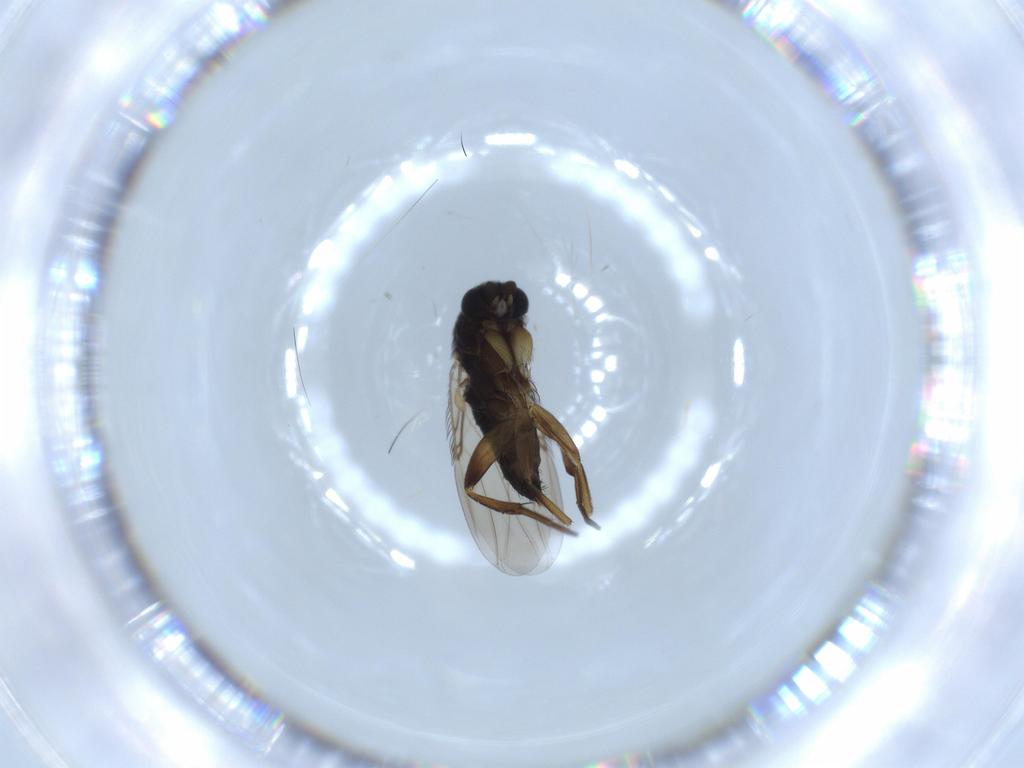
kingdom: Animalia
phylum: Arthropoda
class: Insecta
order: Diptera
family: Phoridae
